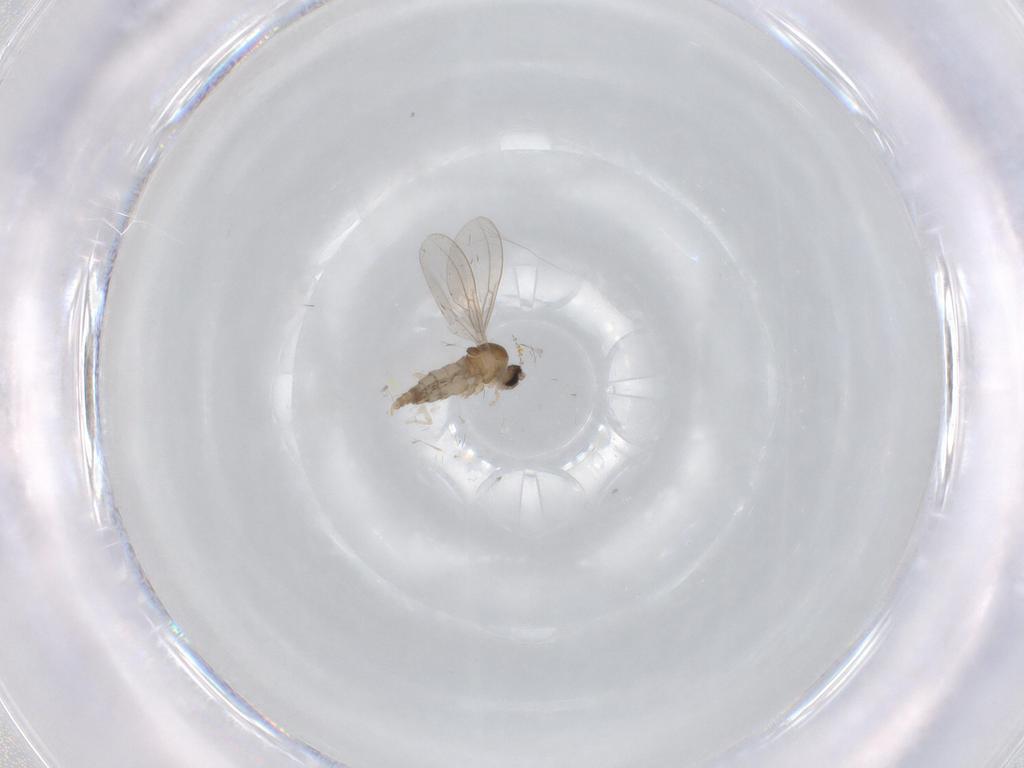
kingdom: Animalia
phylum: Arthropoda
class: Insecta
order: Diptera
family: Cecidomyiidae
